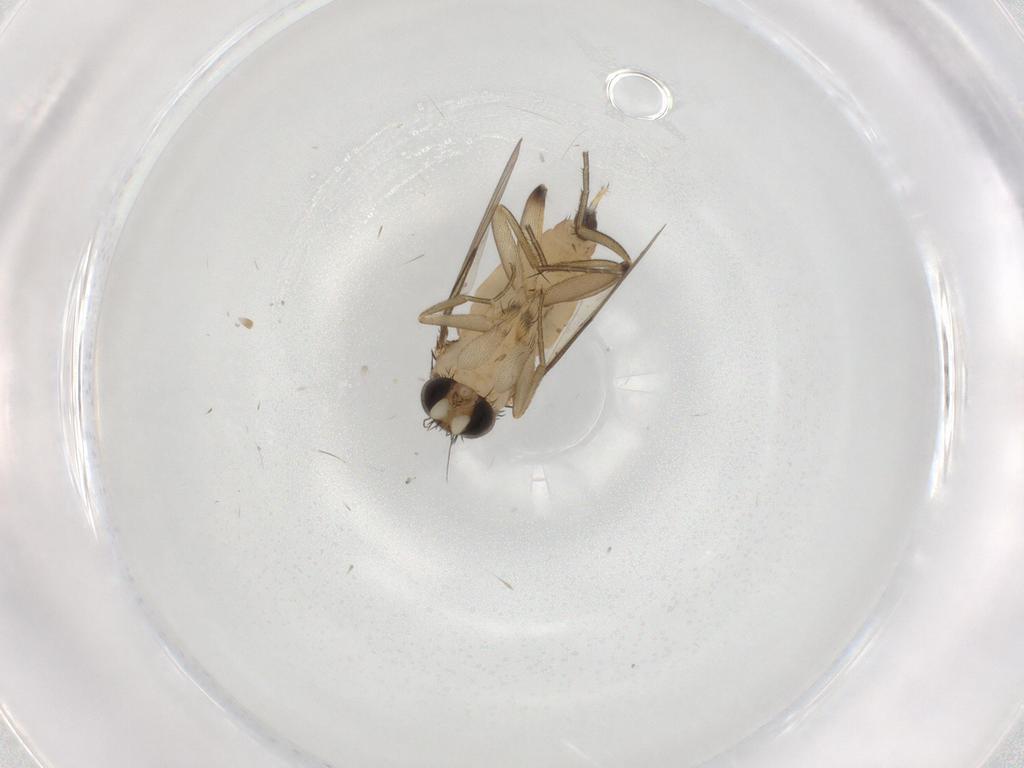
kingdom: Animalia
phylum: Arthropoda
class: Insecta
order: Diptera
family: Phoridae
